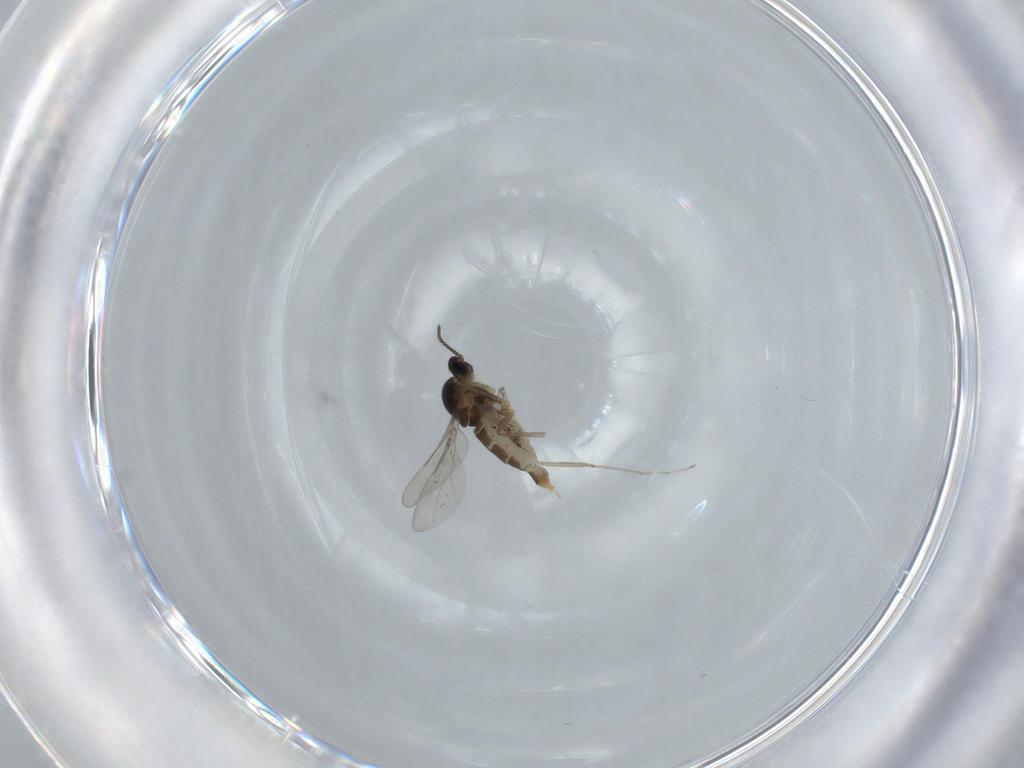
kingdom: Animalia
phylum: Arthropoda
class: Insecta
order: Diptera
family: Cecidomyiidae
